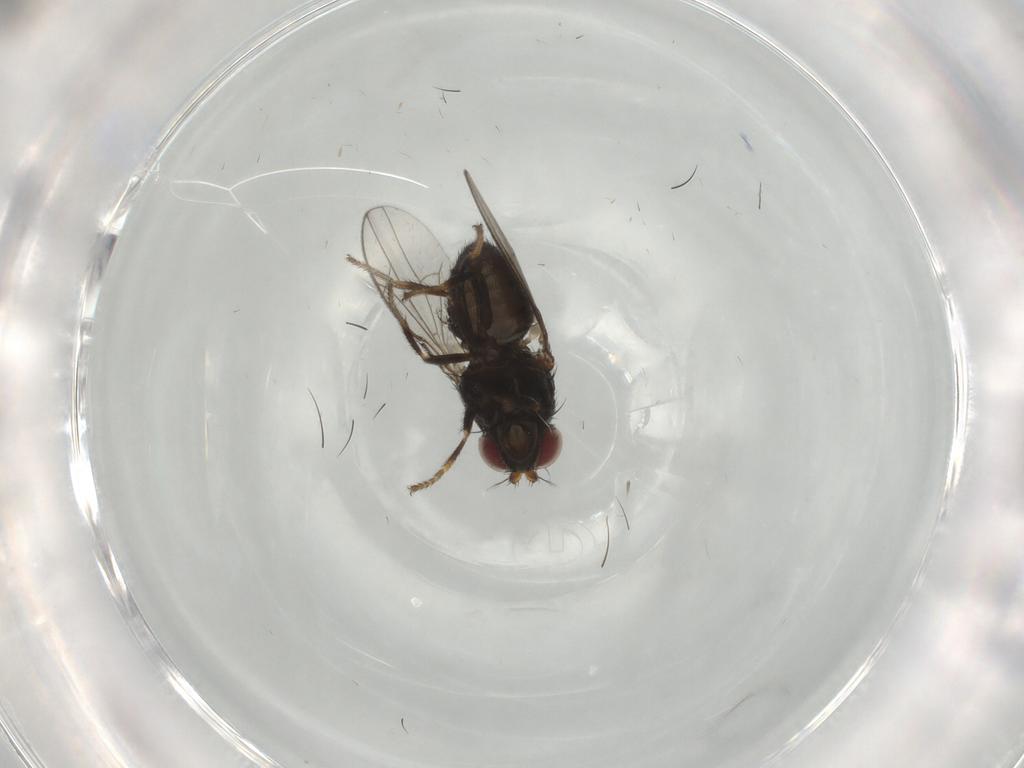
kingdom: Animalia
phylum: Arthropoda
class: Insecta
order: Diptera
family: Ephydridae
